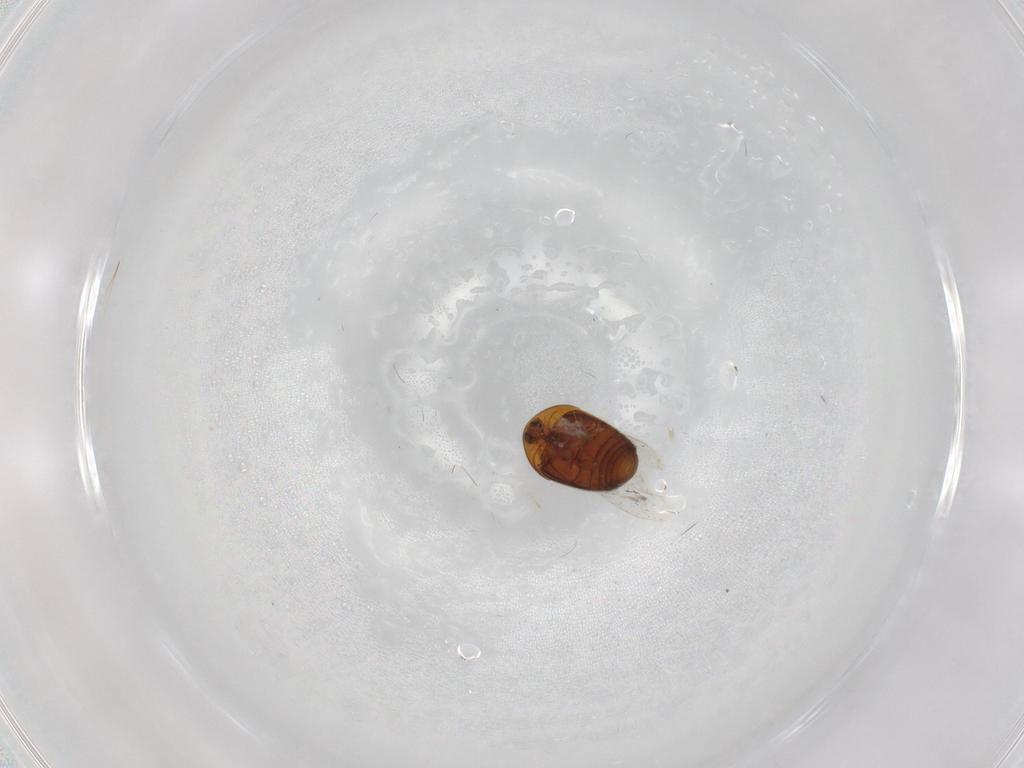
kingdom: Animalia
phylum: Arthropoda
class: Insecta
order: Coleoptera
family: Corylophidae
